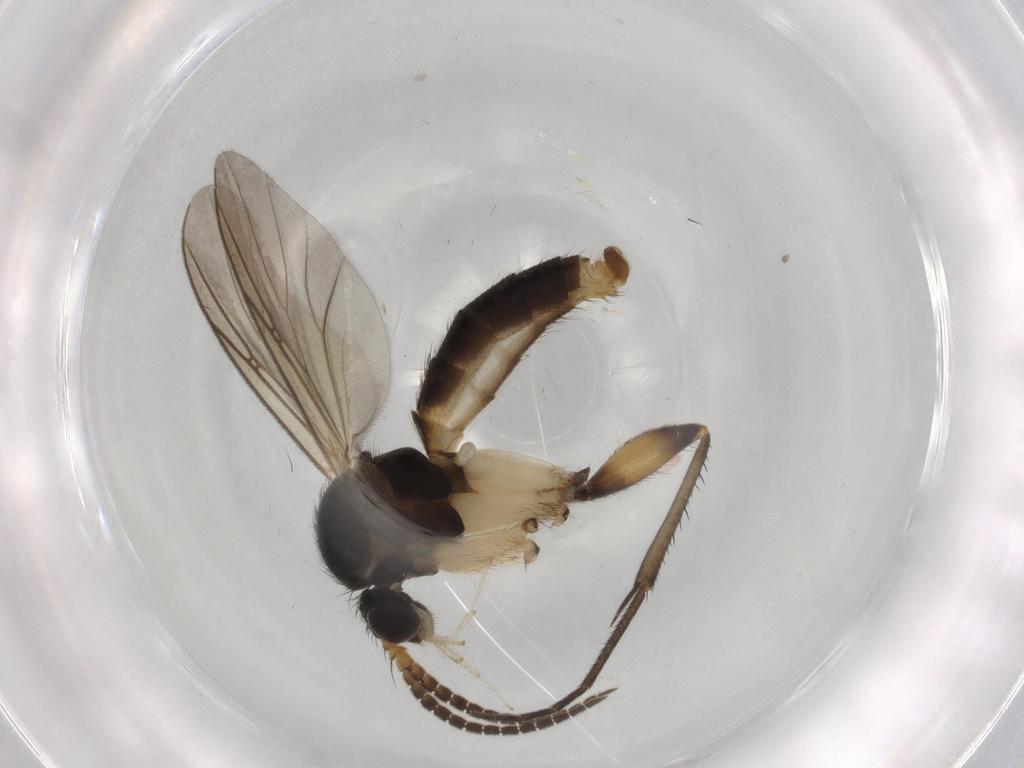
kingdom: Animalia
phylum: Arthropoda
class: Insecta
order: Diptera
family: Mycetophilidae
